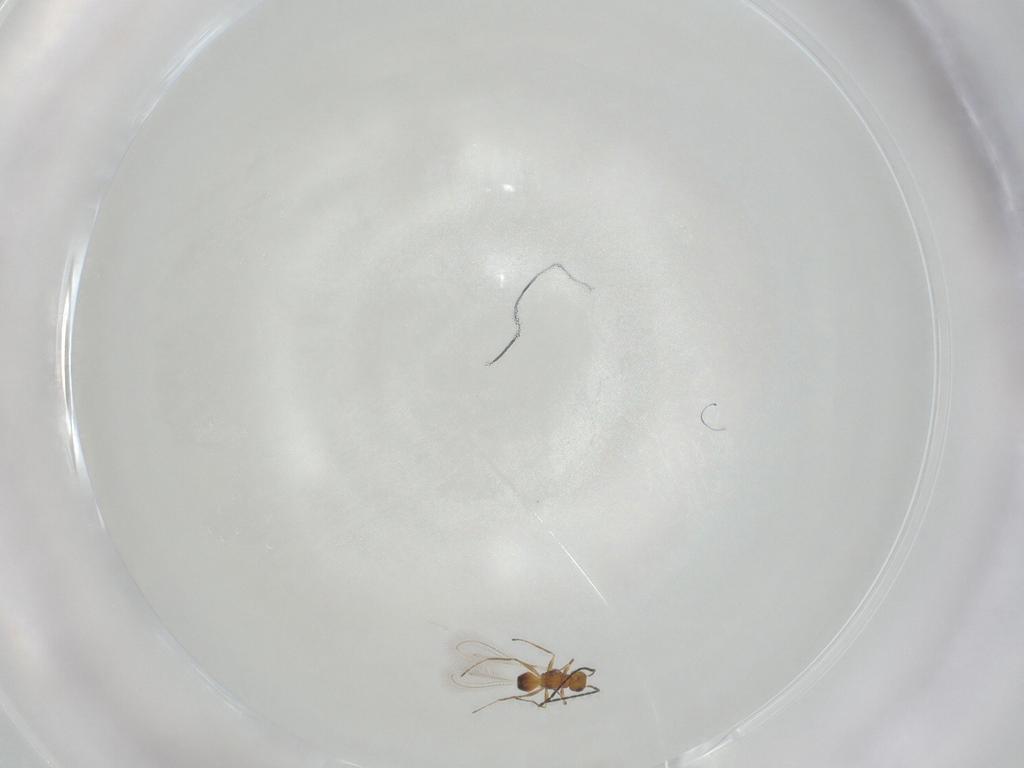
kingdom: Animalia
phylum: Arthropoda
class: Insecta
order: Hymenoptera
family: Mymaridae
